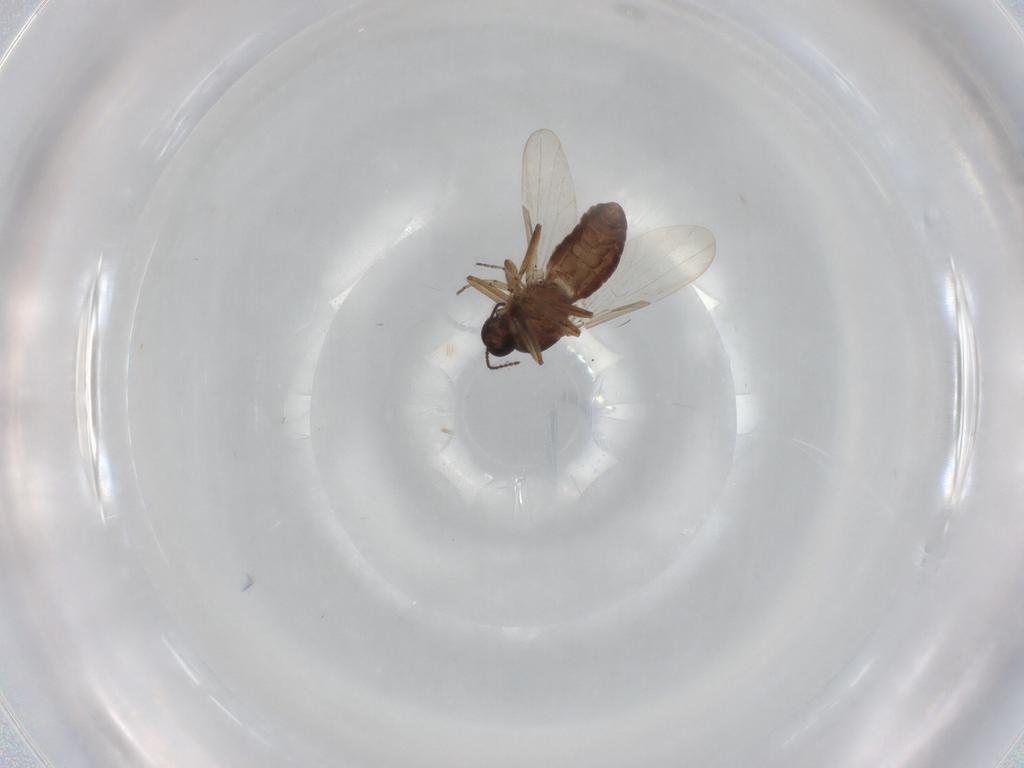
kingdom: Animalia
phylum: Arthropoda
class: Insecta
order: Diptera
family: Ceratopogonidae
